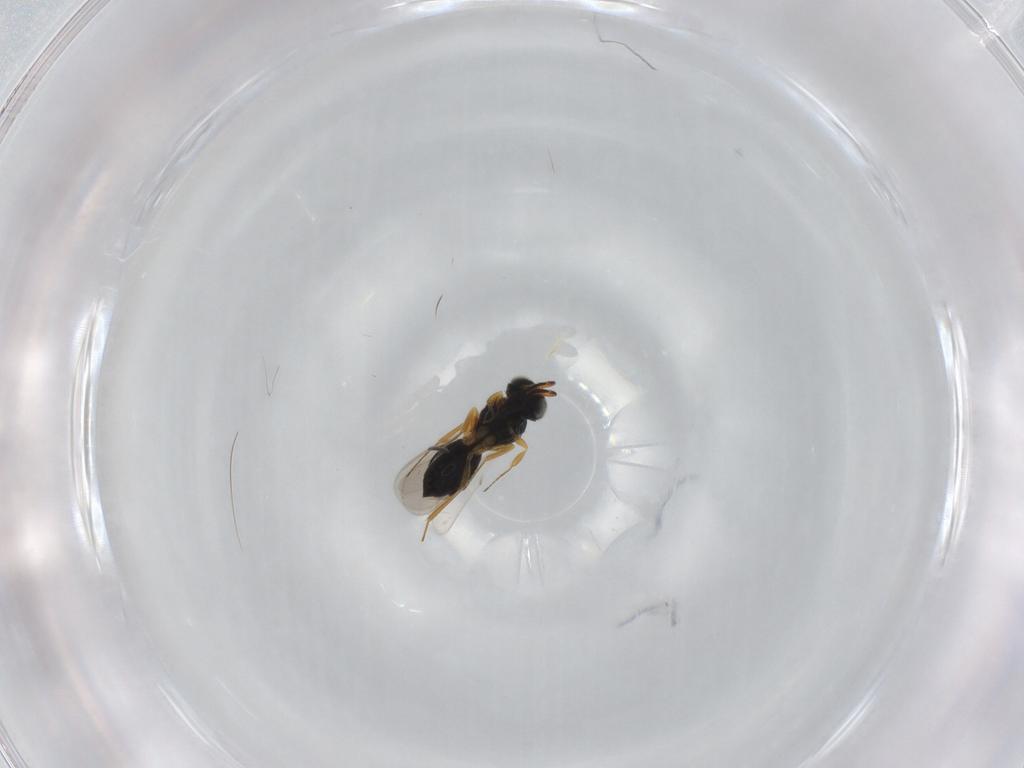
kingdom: Animalia
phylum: Arthropoda
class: Insecta
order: Hymenoptera
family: Scelionidae
